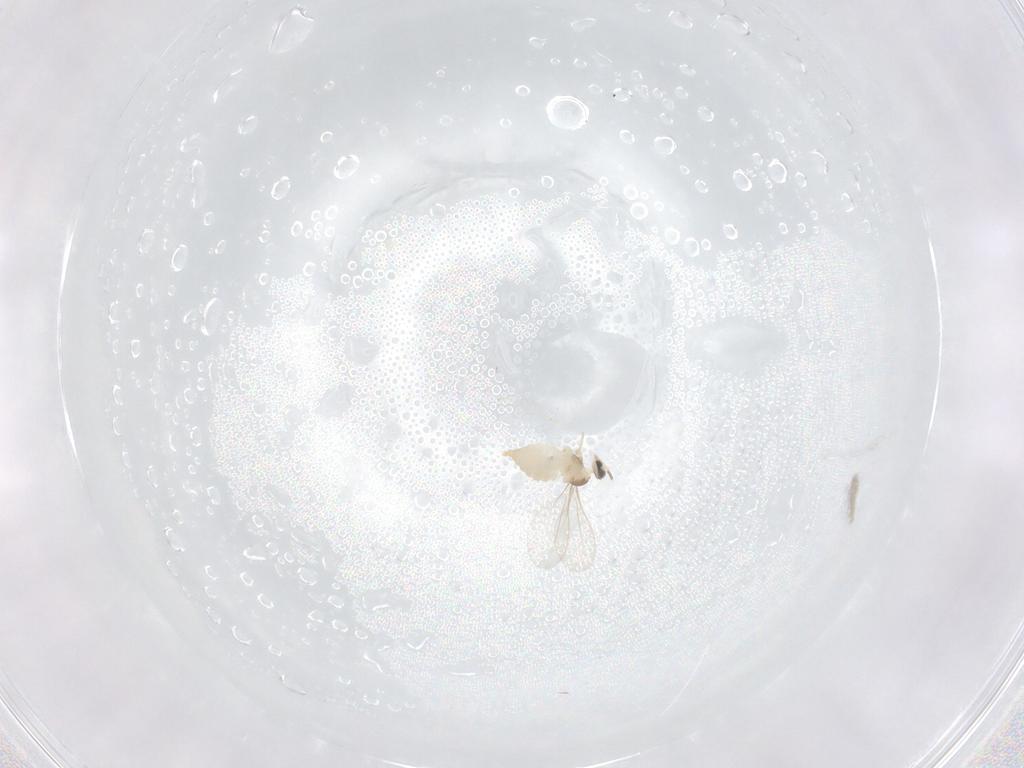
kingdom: Animalia
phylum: Arthropoda
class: Insecta
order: Diptera
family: Cecidomyiidae
